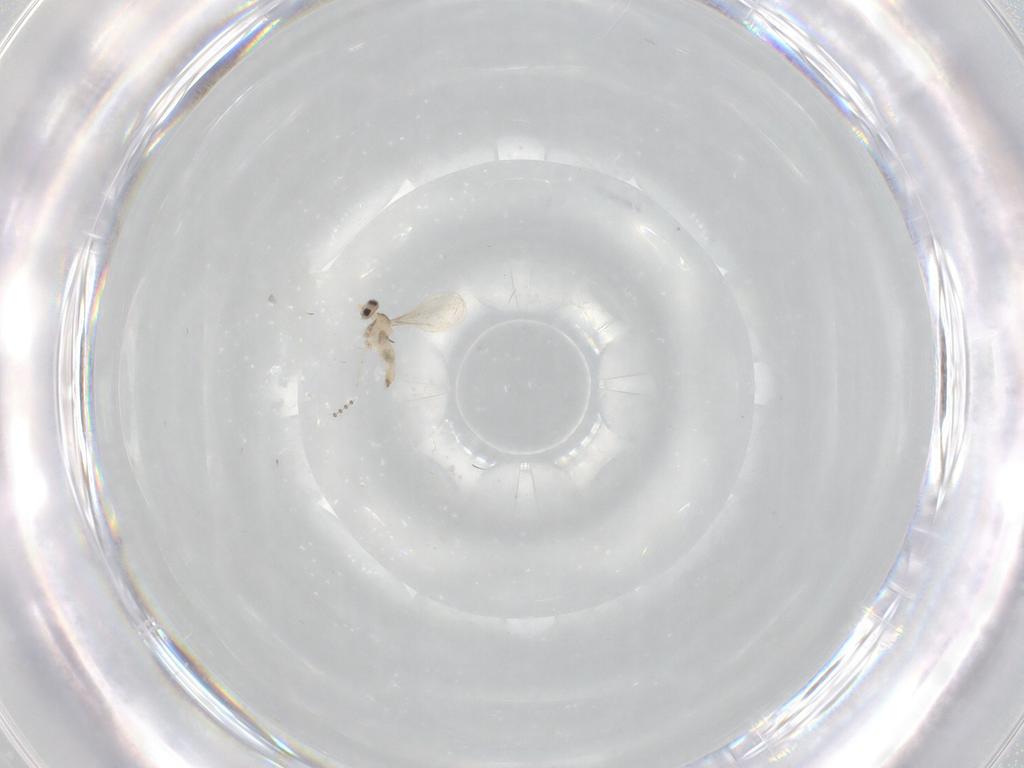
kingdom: Animalia
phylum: Arthropoda
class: Insecta
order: Diptera
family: Cecidomyiidae
